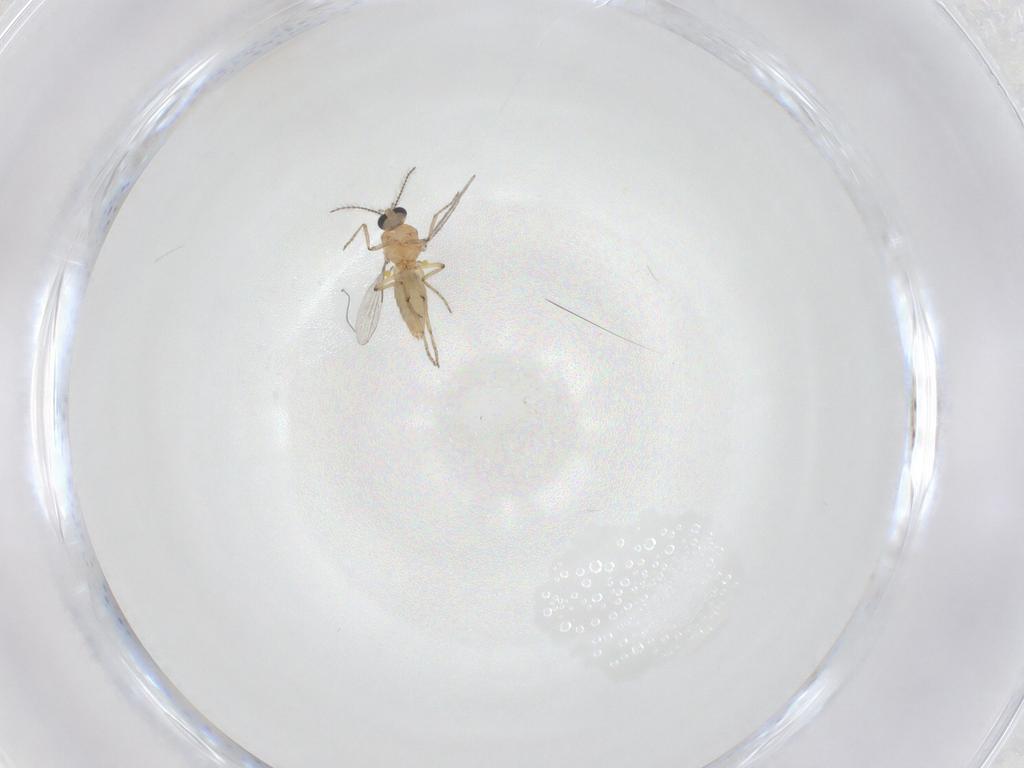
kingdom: Animalia
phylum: Arthropoda
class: Insecta
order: Diptera
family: Ceratopogonidae
